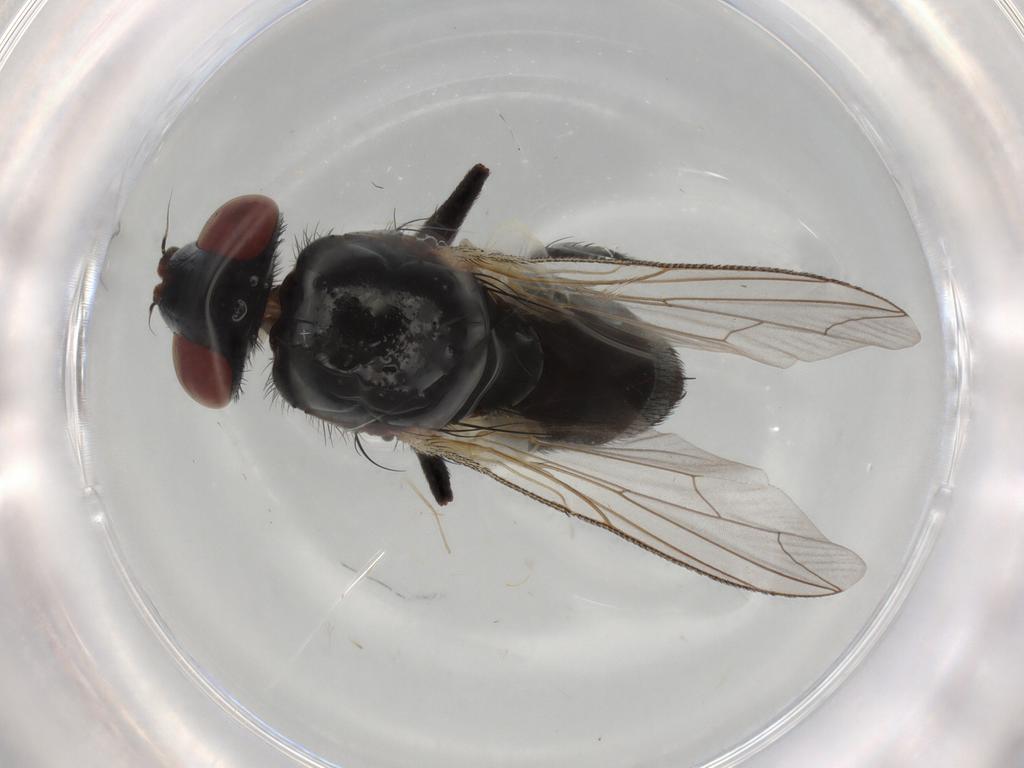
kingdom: Animalia
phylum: Arthropoda
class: Insecta
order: Diptera
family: Sarcophagidae
